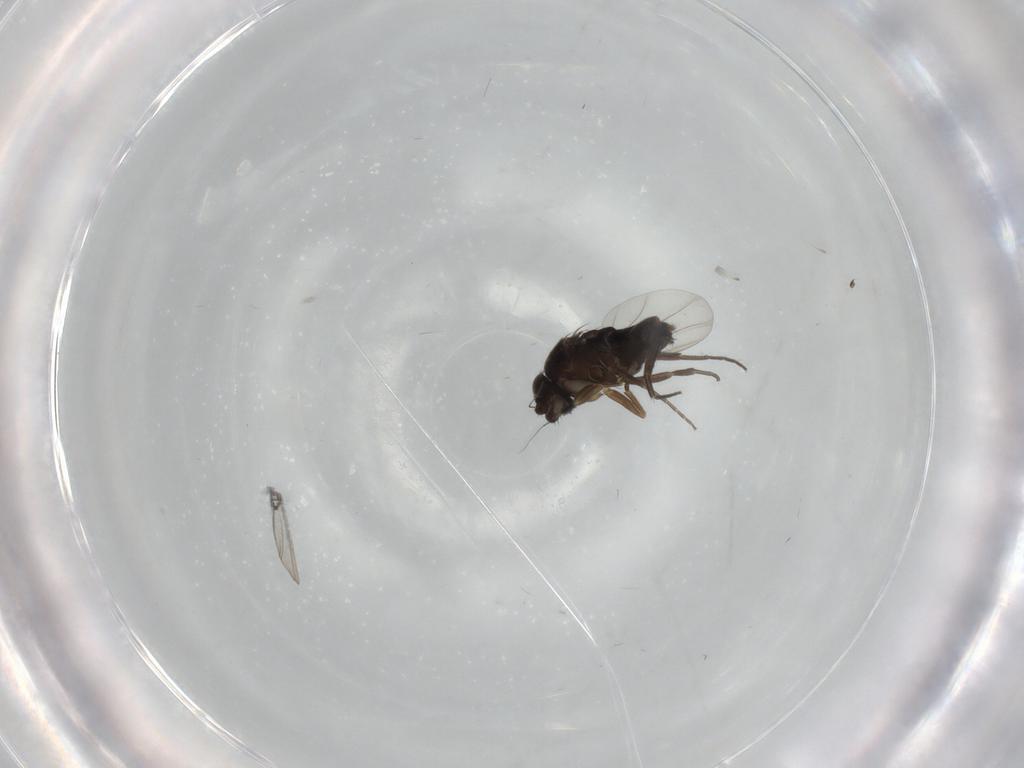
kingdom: Animalia
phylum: Arthropoda
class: Insecta
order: Diptera
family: Phoridae
